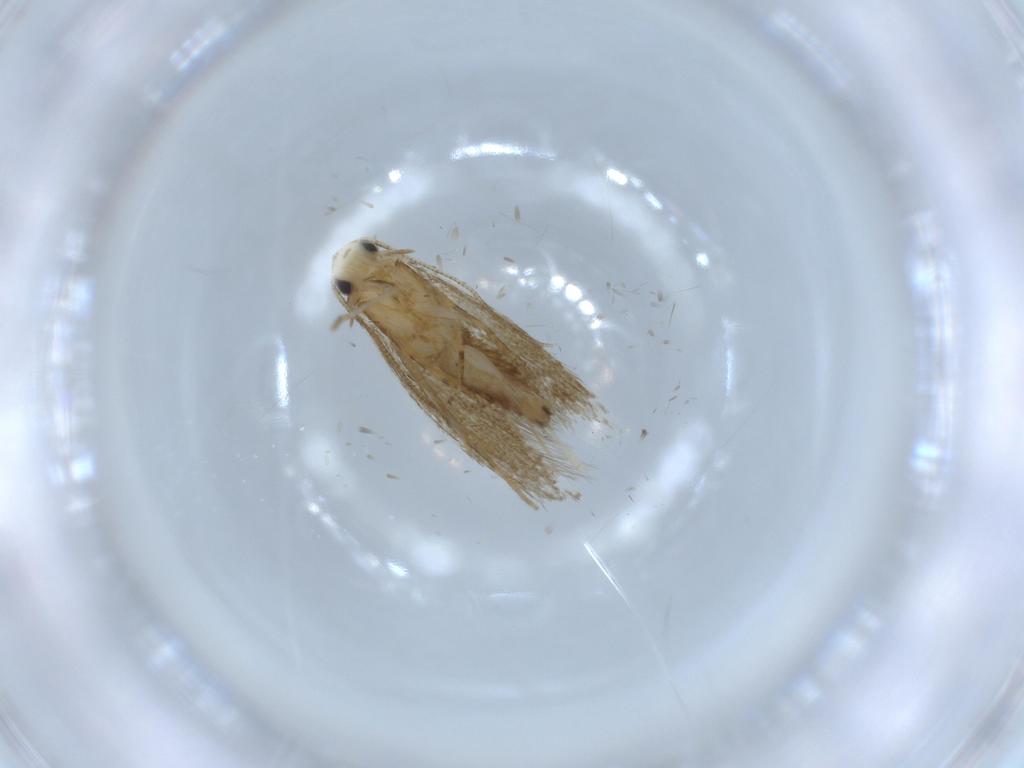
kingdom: Animalia
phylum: Arthropoda
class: Insecta
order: Lepidoptera
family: Tineidae
